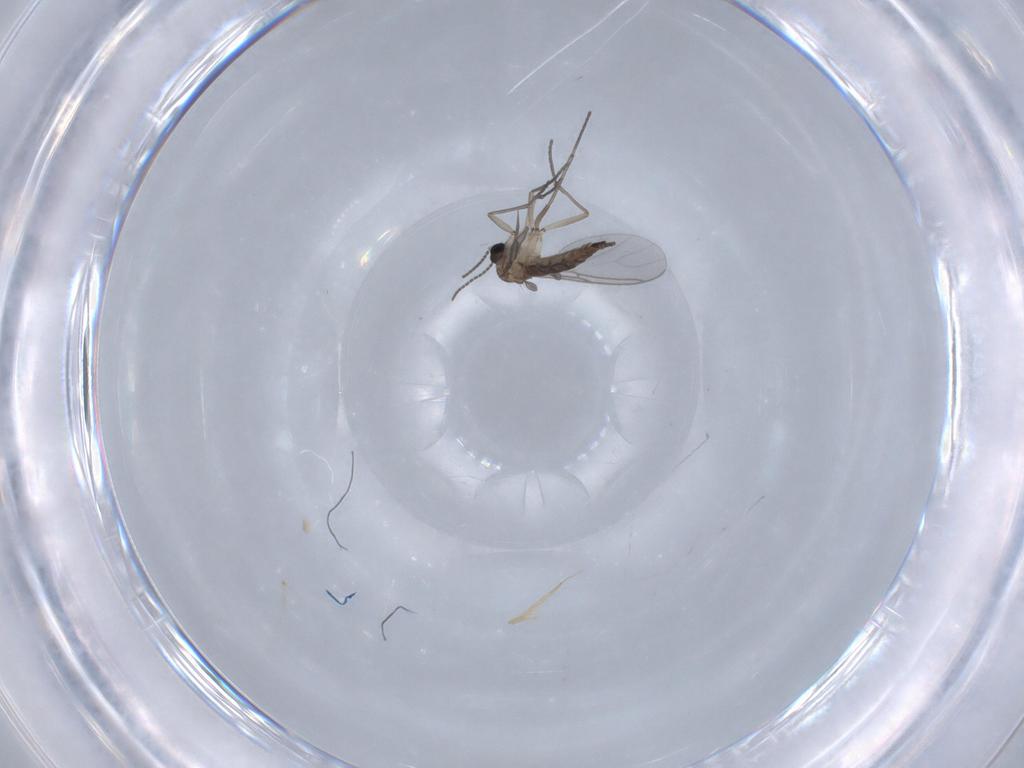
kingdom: Animalia
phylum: Arthropoda
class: Insecta
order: Diptera
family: Sciaridae
